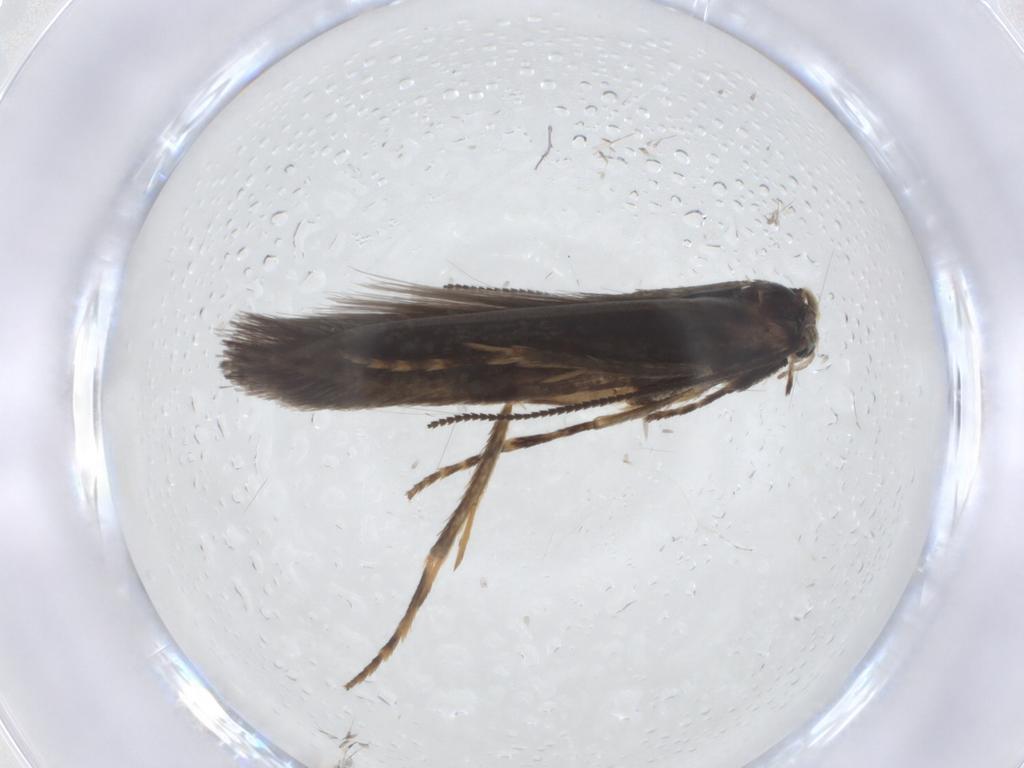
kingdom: Animalia
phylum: Arthropoda
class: Insecta
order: Lepidoptera
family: Nepticulidae
